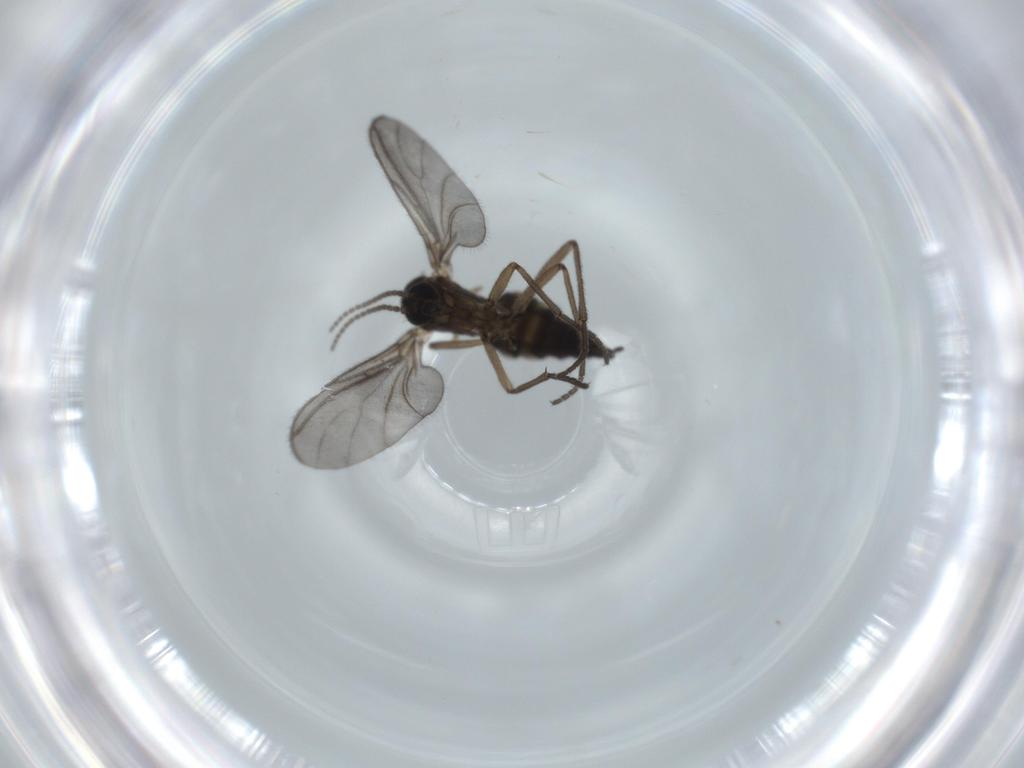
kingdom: Animalia
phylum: Arthropoda
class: Insecta
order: Diptera
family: Sciaridae
